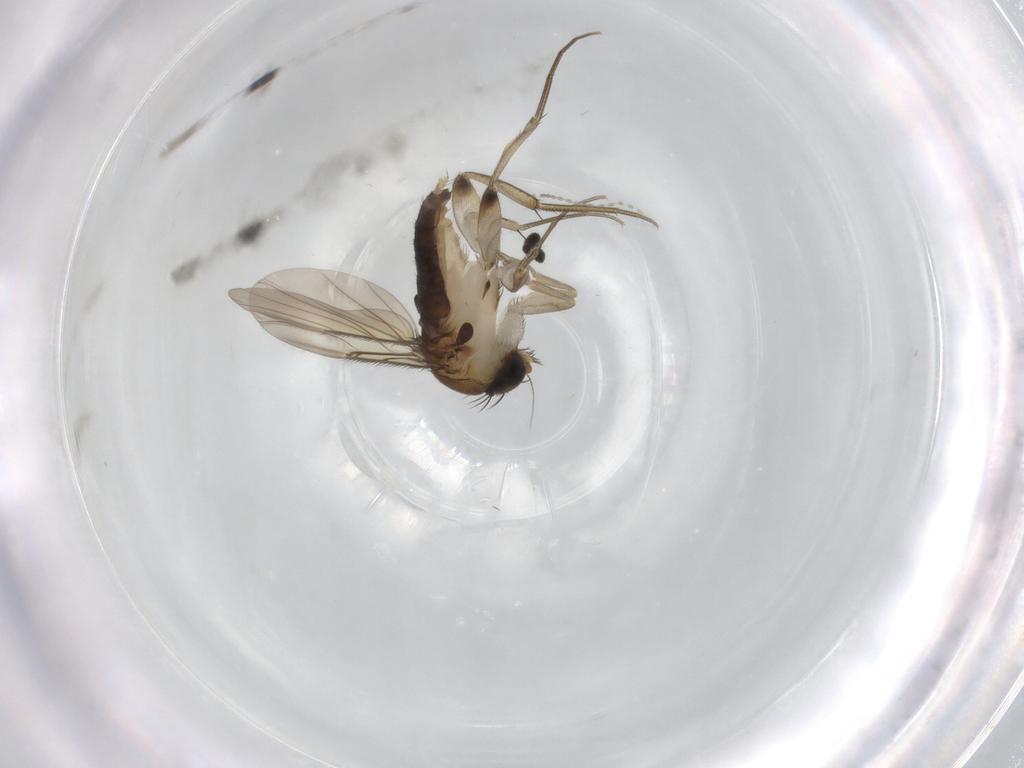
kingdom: Animalia
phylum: Arthropoda
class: Insecta
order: Diptera
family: Phoridae
